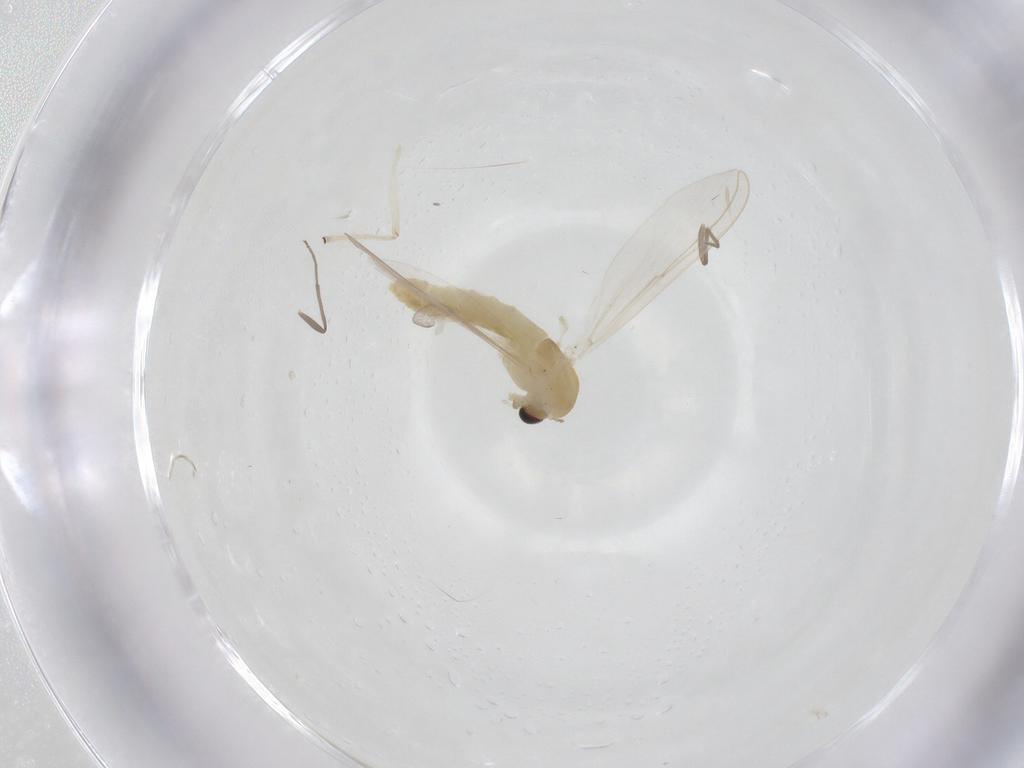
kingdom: Animalia
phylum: Arthropoda
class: Insecta
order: Diptera
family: Chironomidae
